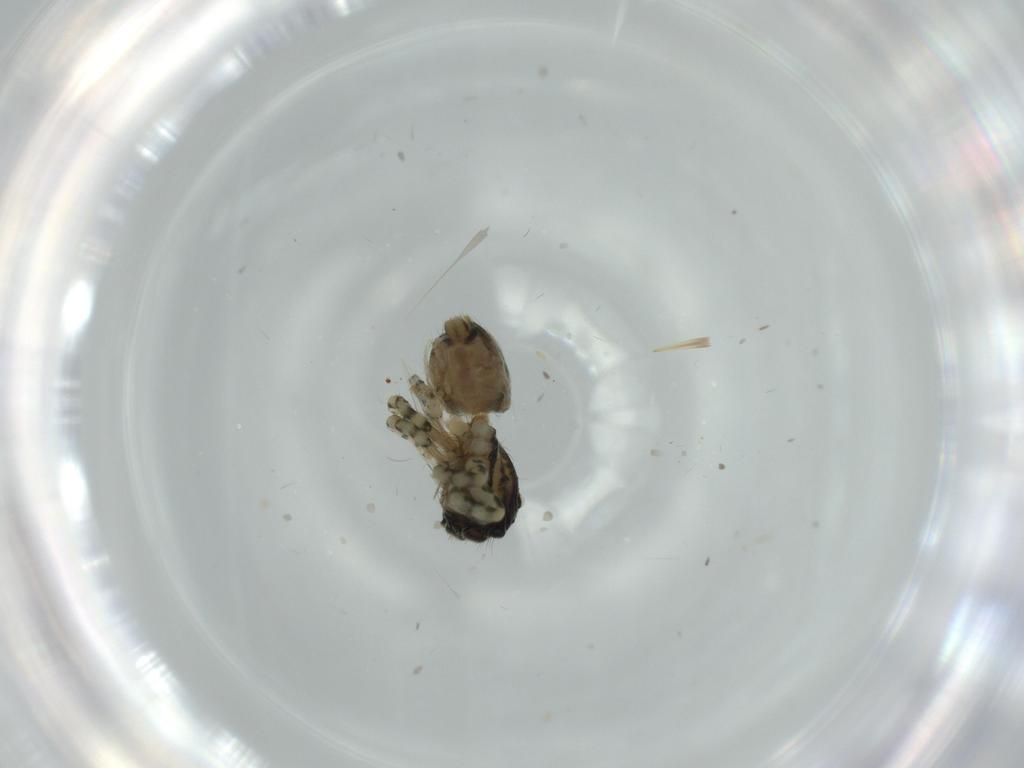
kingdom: Animalia
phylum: Arthropoda
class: Arachnida
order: Araneae
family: Salticidae
